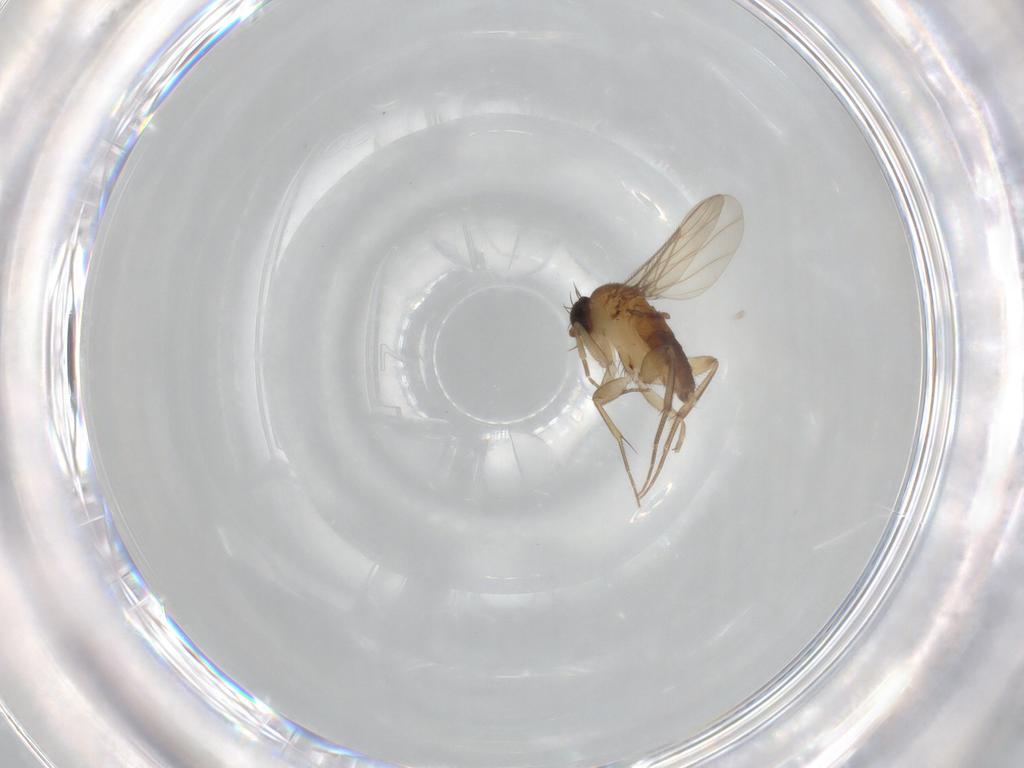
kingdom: Animalia
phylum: Arthropoda
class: Insecta
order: Diptera
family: Phoridae
